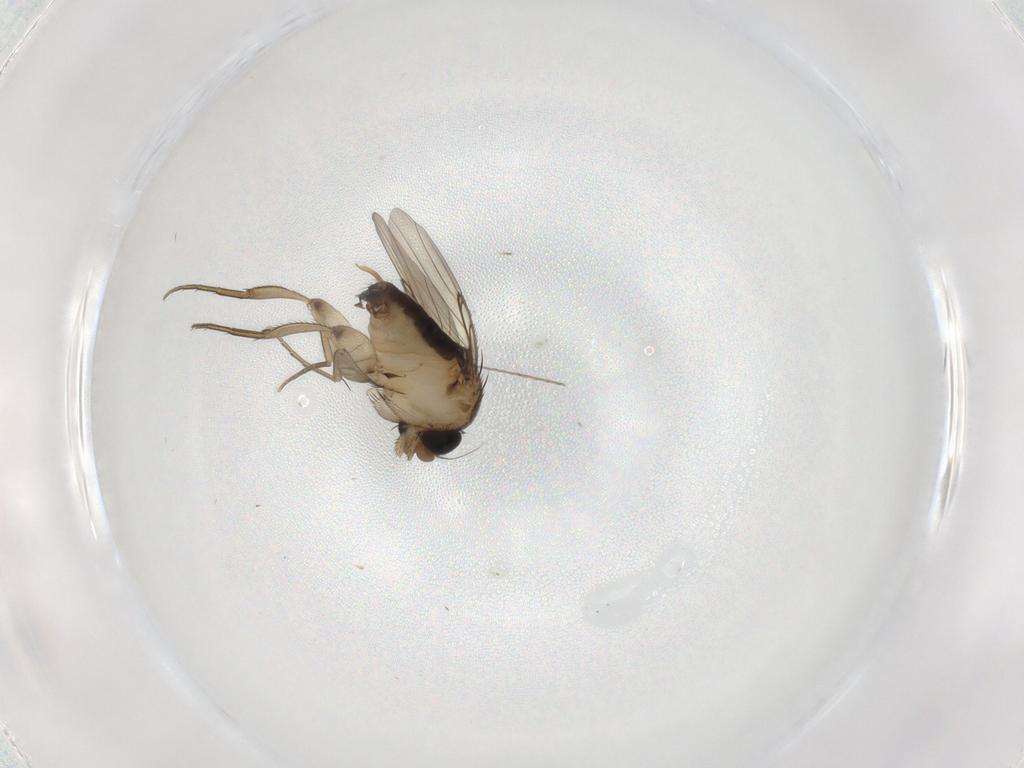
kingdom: Animalia
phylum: Arthropoda
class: Insecta
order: Diptera
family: Phoridae
